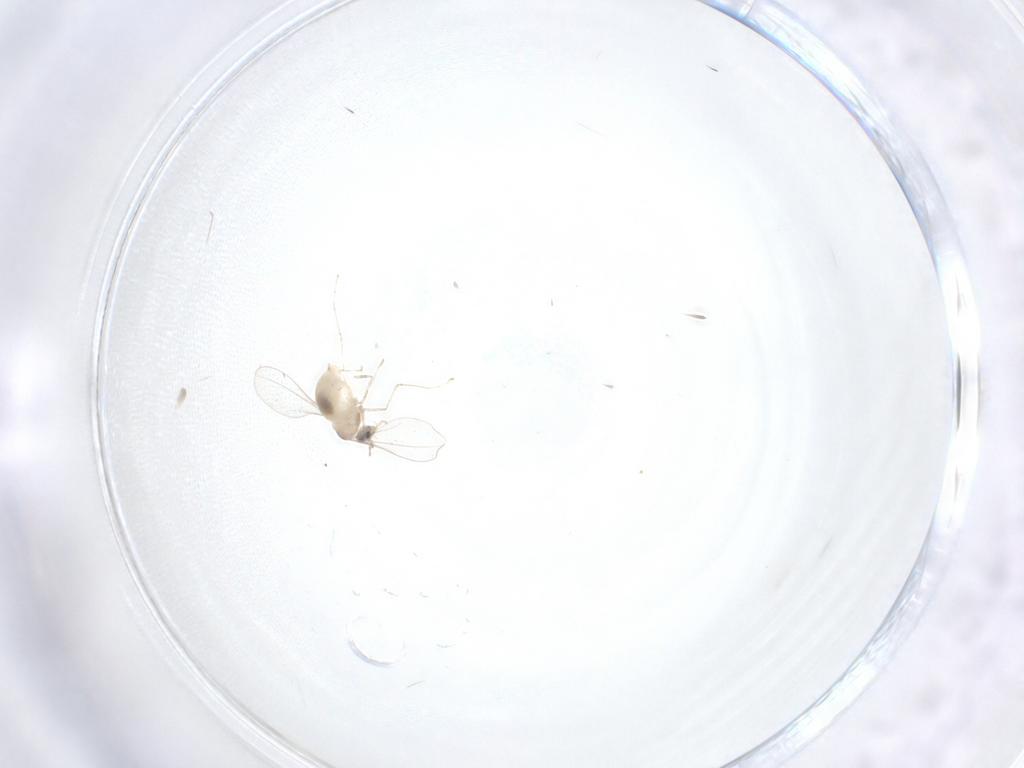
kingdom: Animalia
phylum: Arthropoda
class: Insecta
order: Diptera
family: Cecidomyiidae
